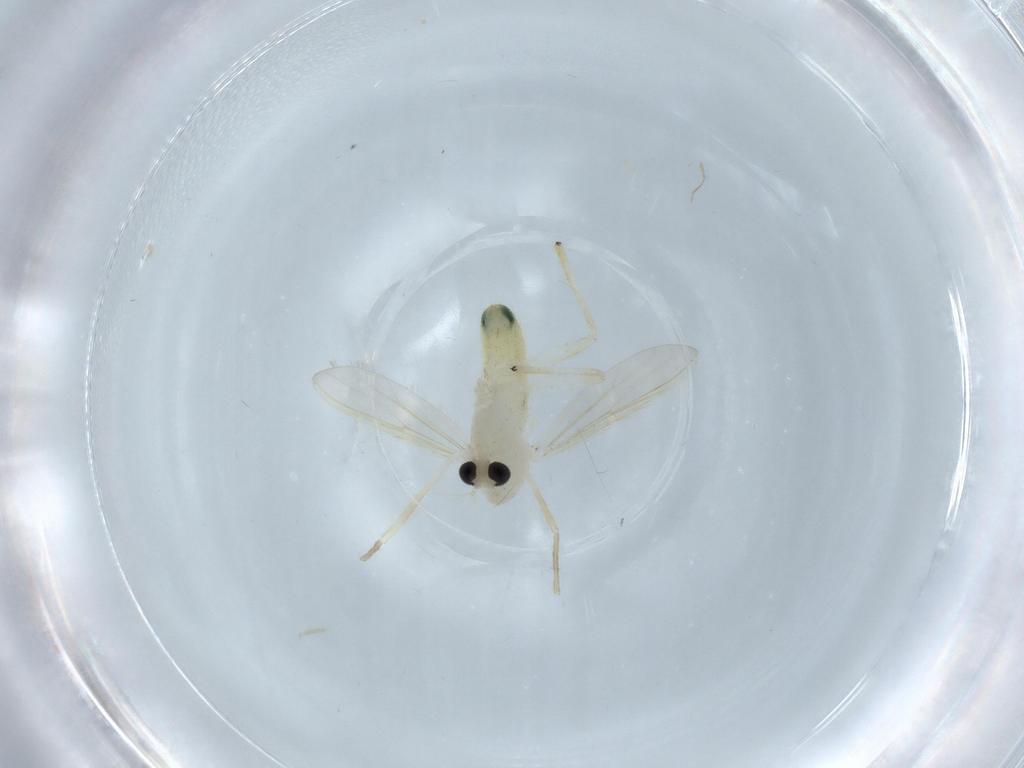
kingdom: Animalia
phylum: Arthropoda
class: Insecta
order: Diptera
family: Chironomidae
